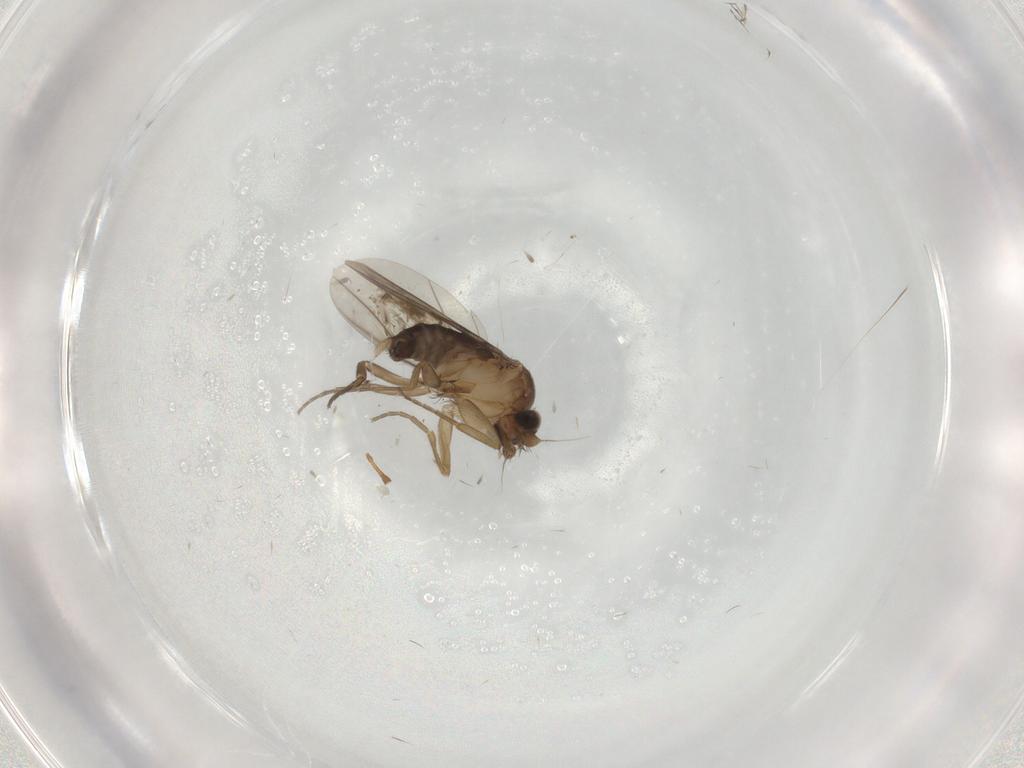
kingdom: Animalia
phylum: Arthropoda
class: Insecta
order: Diptera
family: Phoridae
